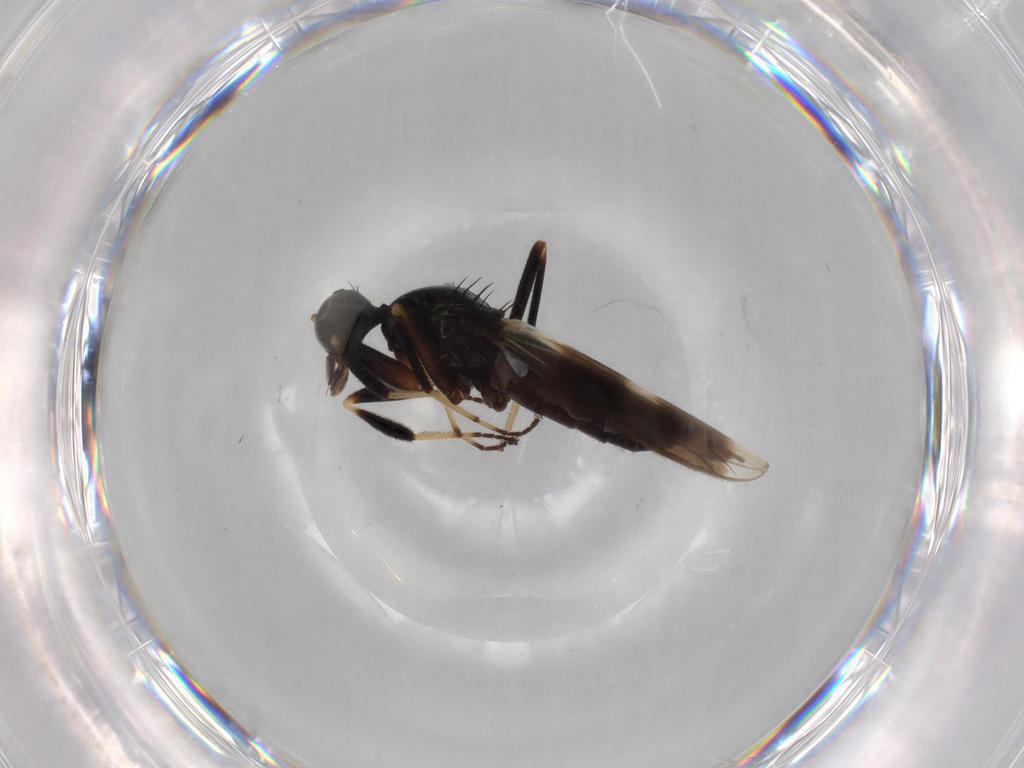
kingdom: Animalia
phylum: Arthropoda
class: Insecta
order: Diptera
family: Hybotidae
